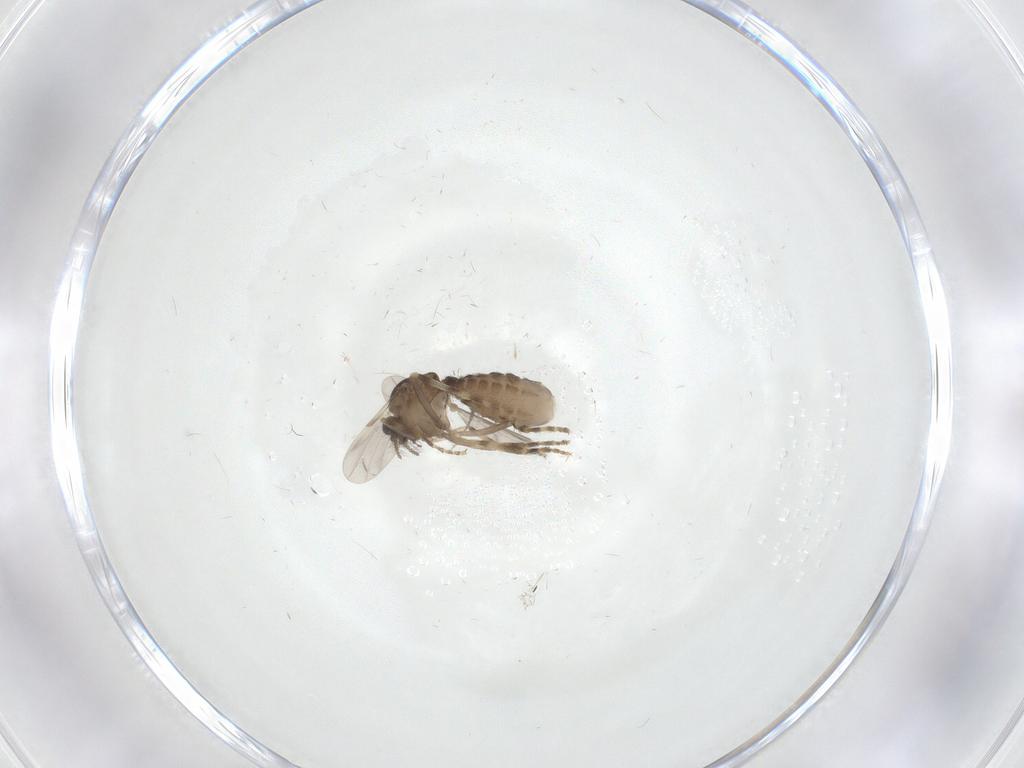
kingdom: Animalia
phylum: Arthropoda
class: Insecta
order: Diptera
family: Ceratopogonidae
